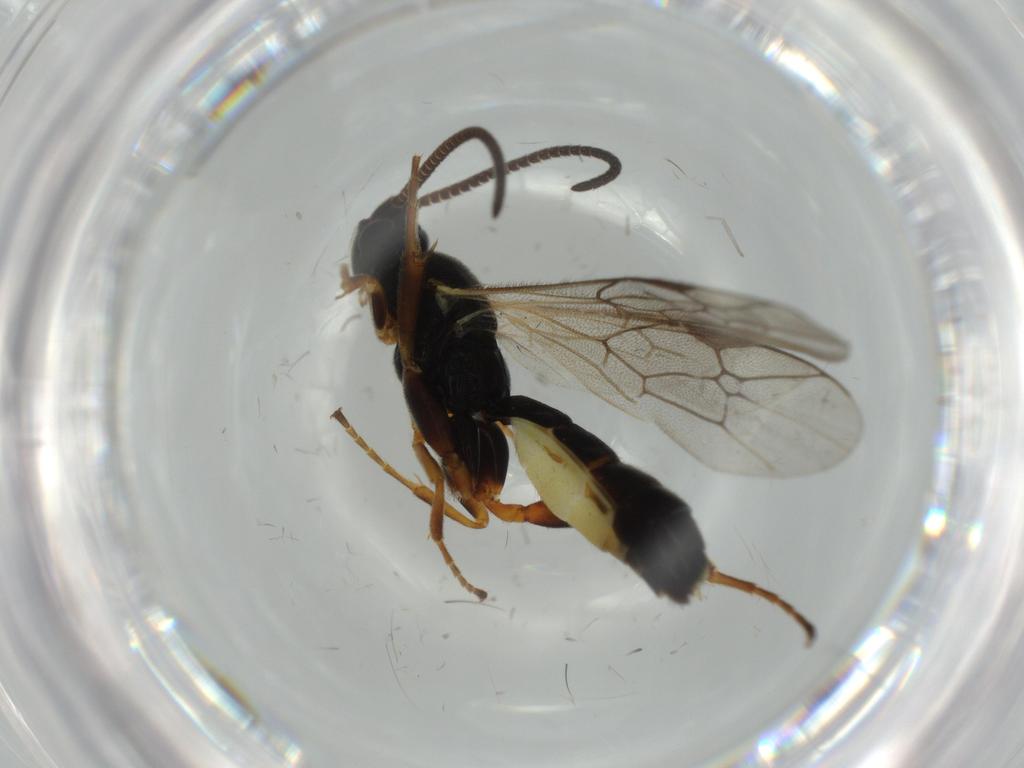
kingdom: Animalia
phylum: Arthropoda
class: Insecta
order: Hymenoptera
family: Ichneumonidae
